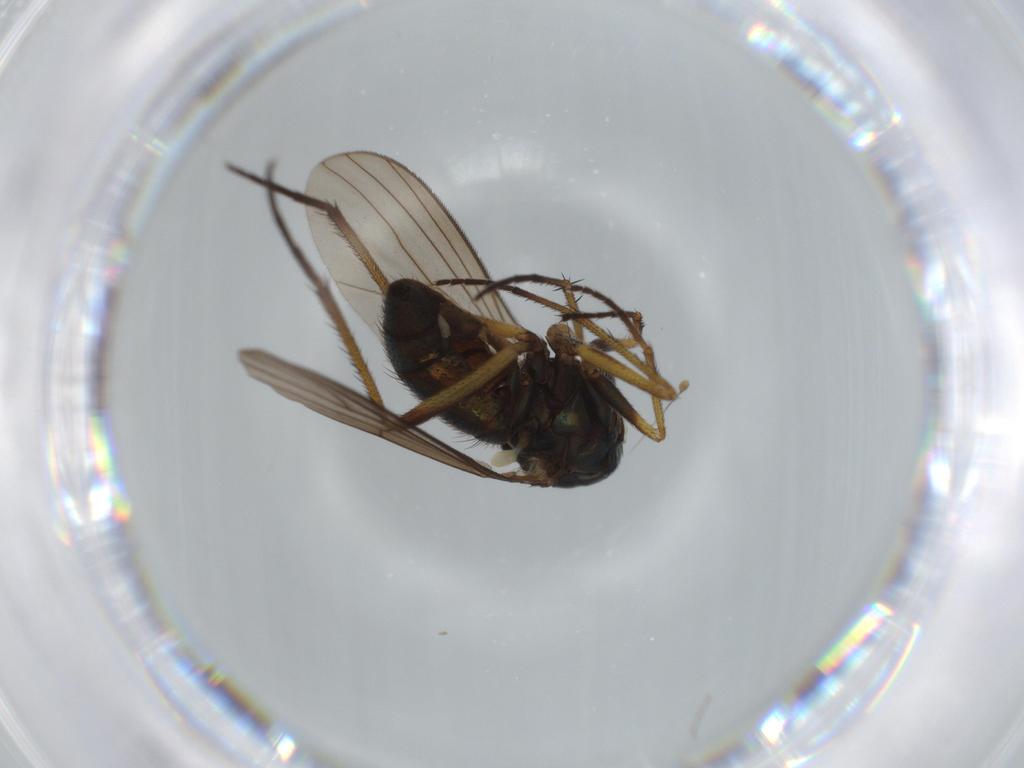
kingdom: Animalia
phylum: Arthropoda
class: Insecta
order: Diptera
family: Dolichopodidae
